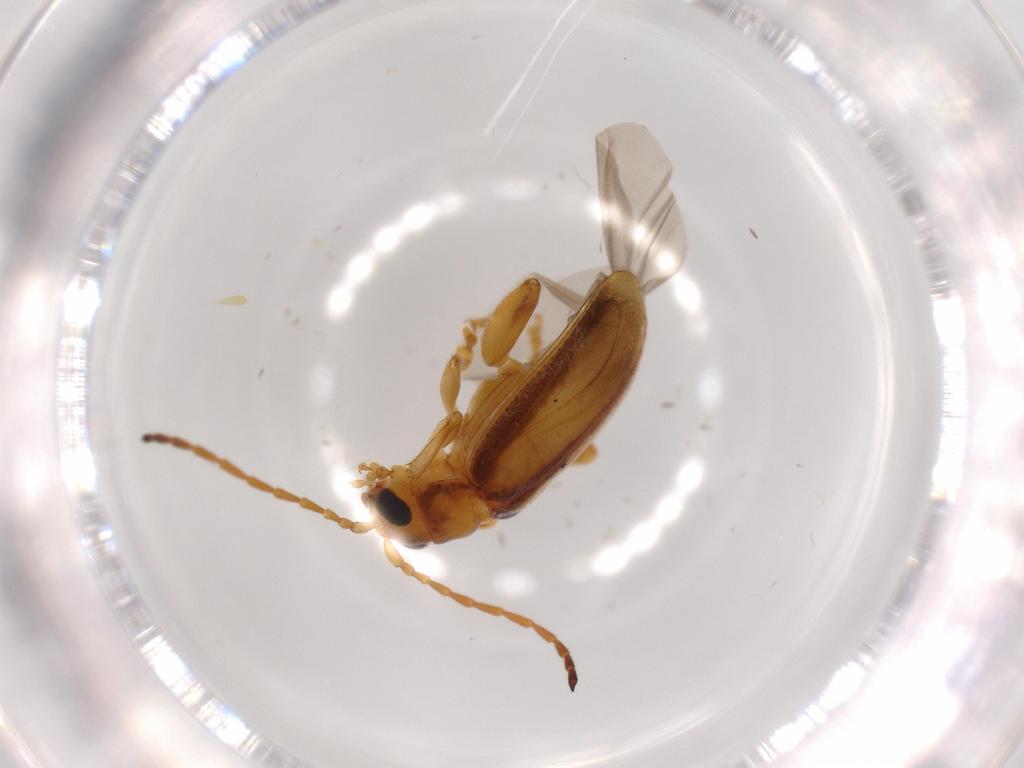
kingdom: Animalia
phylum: Arthropoda
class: Insecta
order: Coleoptera
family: Chrysomelidae
